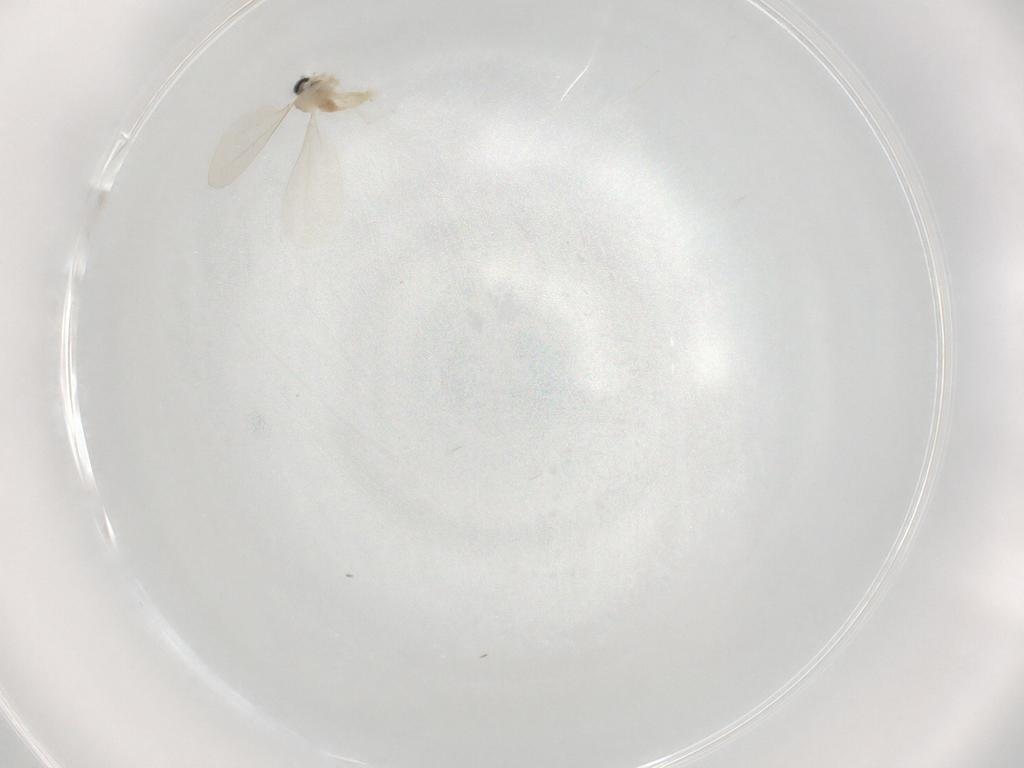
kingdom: Animalia
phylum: Arthropoda
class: Insecta
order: Diptera
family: Cecidomyiidae
